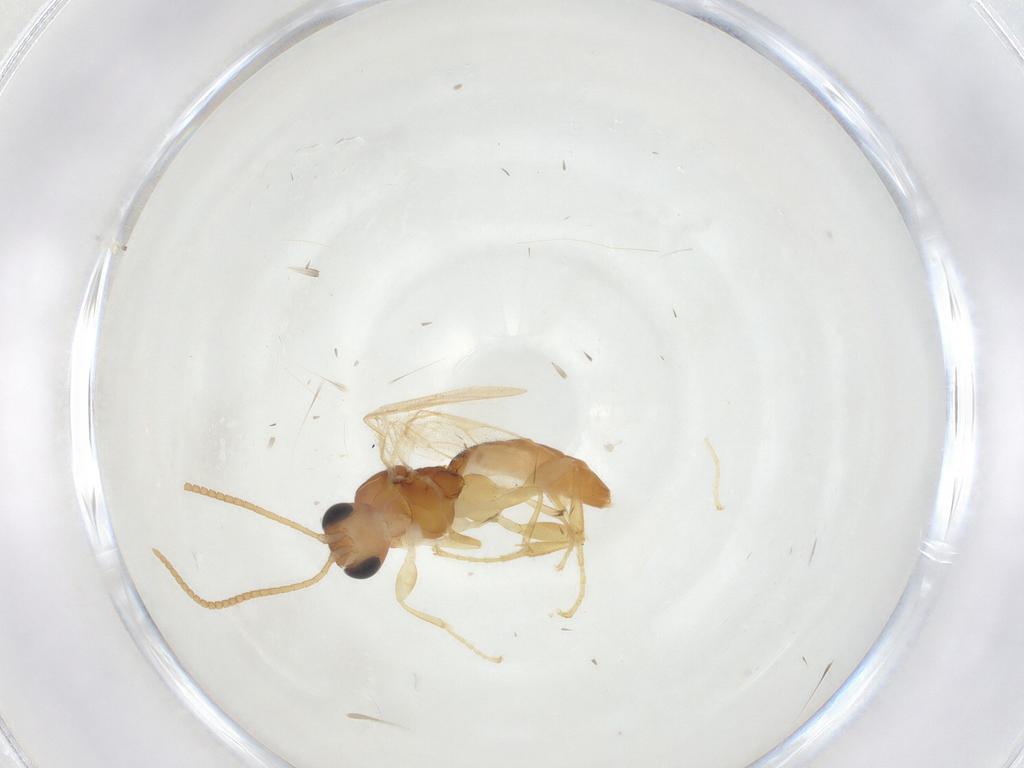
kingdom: Animalia
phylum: Arthropoda
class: Insecta
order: Hymenoptera
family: Ichneumonidae
